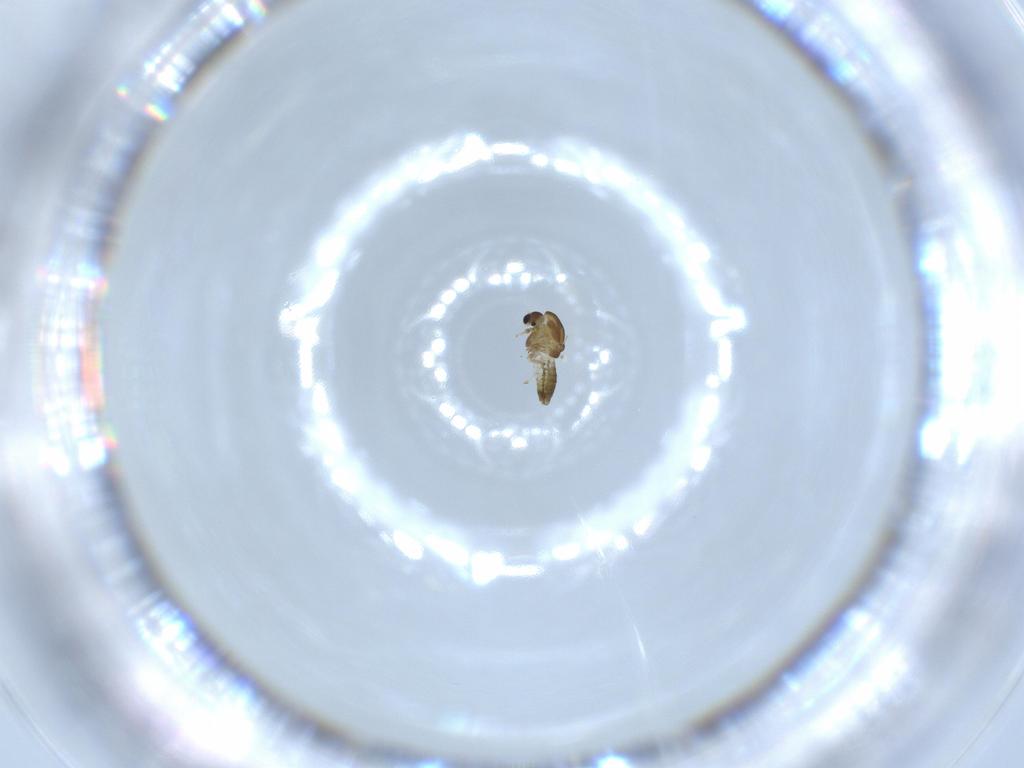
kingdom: Animalia
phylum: Arthropoda
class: Insecta
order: Diptera
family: Chironomidae
